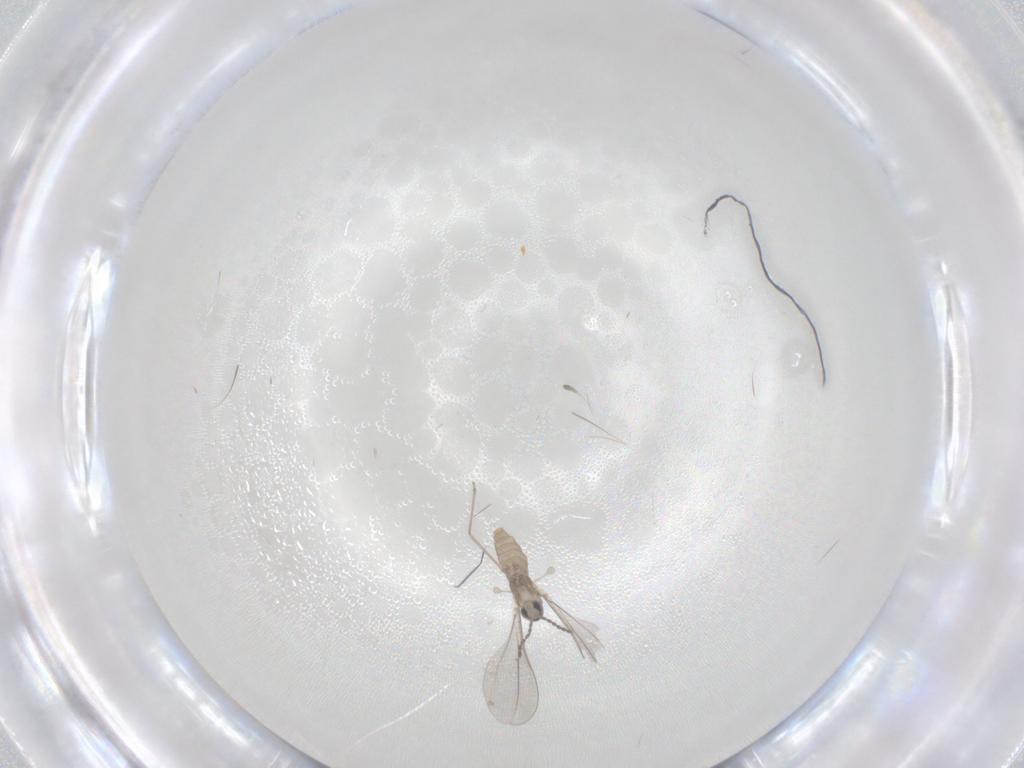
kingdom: Animalia
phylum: Arthropoda
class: Insecta
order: Diptera
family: Cecidomyiidae
